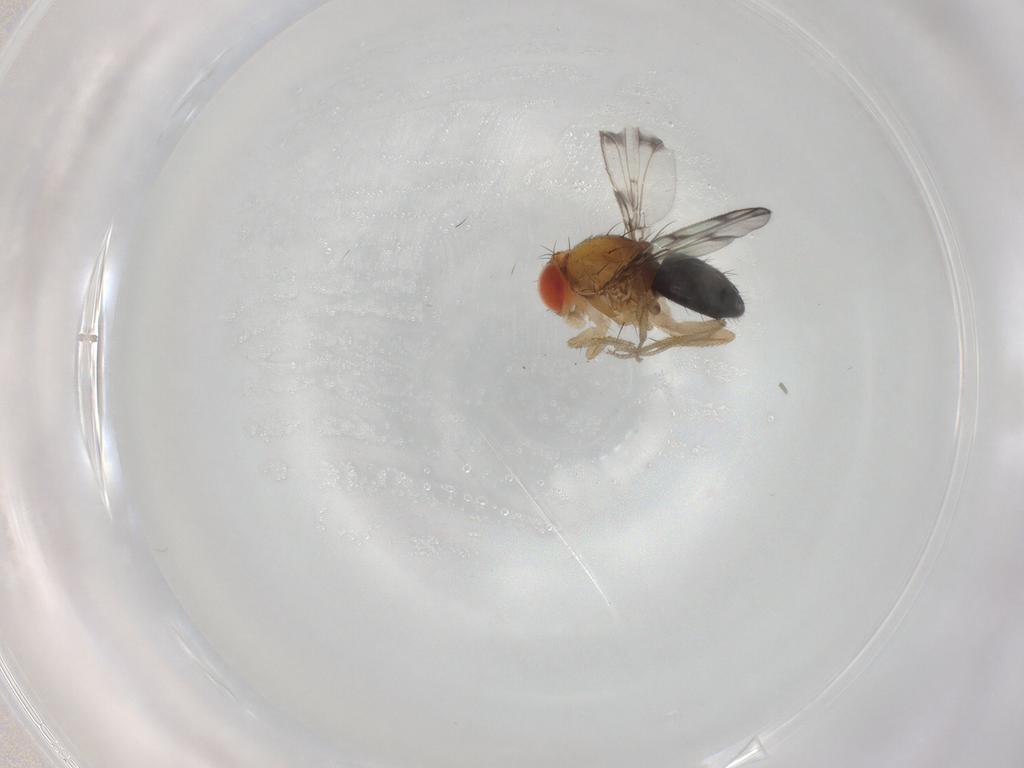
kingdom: Animalia
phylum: Arthropoda
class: Insecta
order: Diptera
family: Drosophilidae
